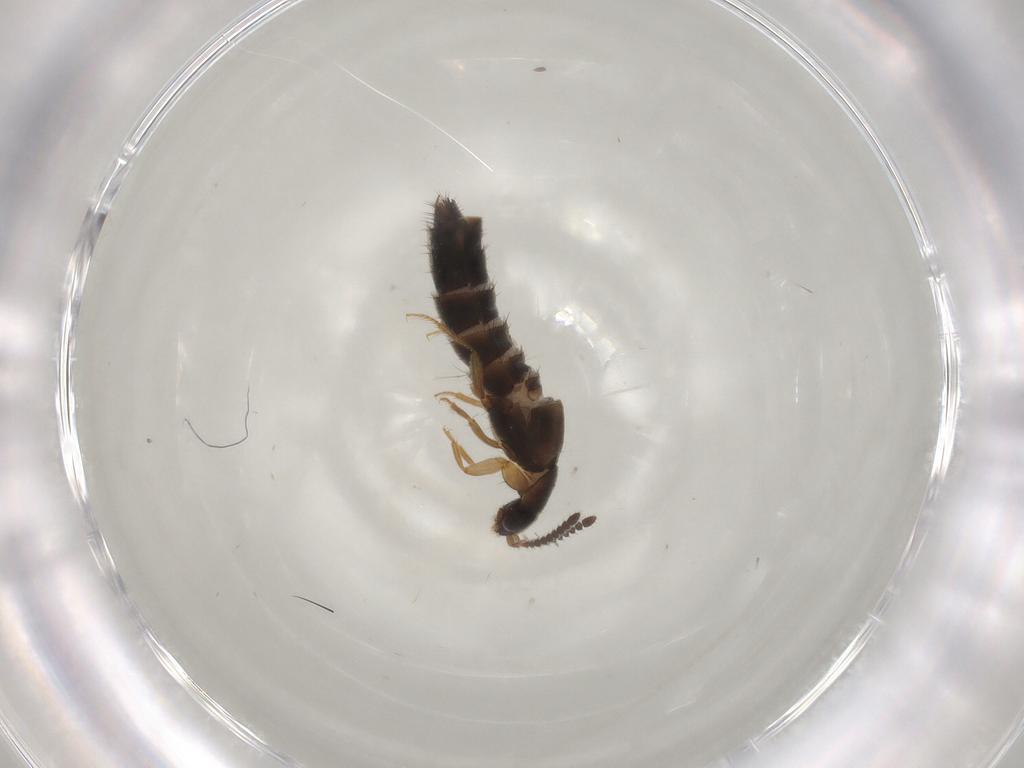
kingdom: Animalia
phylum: Arthropoda
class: Insecta
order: Coleoptera
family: Staphylinidae
